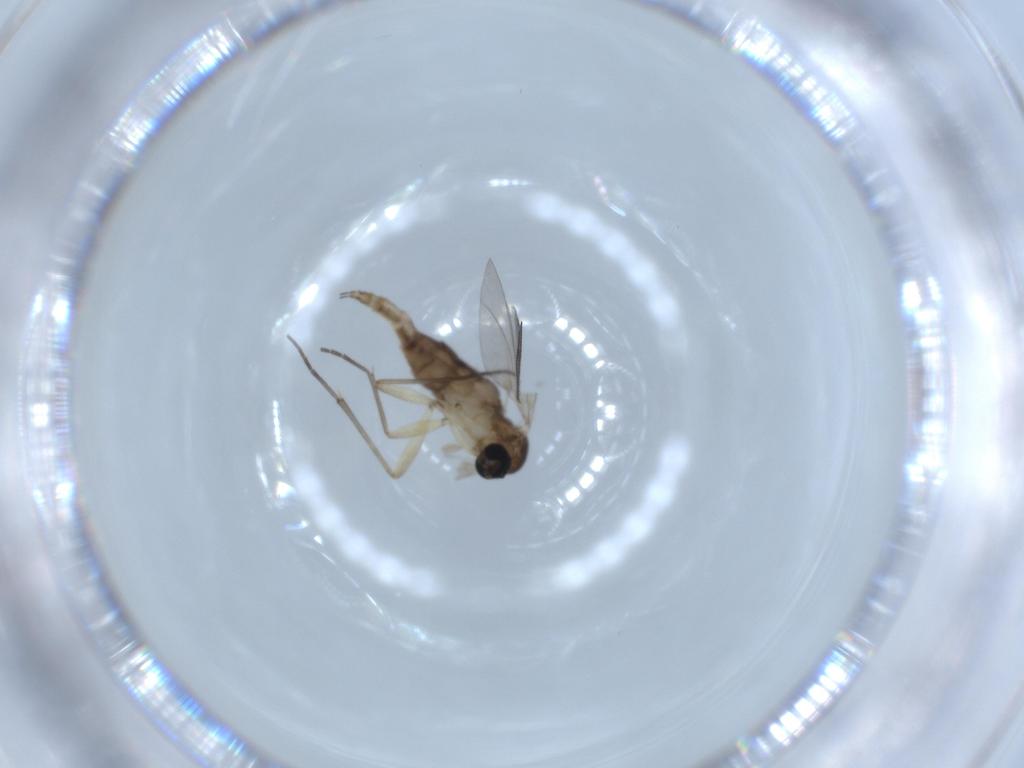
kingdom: Animalia
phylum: Arthropoda
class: Insecta
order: Diptera
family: Sciaridae
